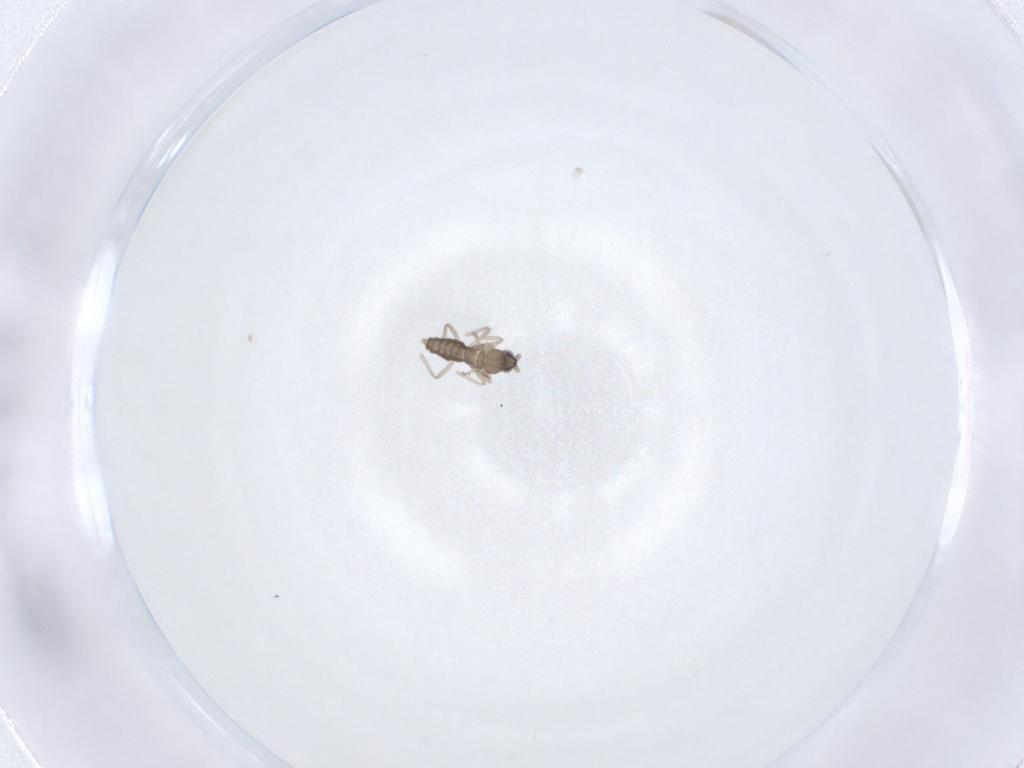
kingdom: Animalia
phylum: Arthropoda
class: Insecta
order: Diptera
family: Cecidomyiidae
